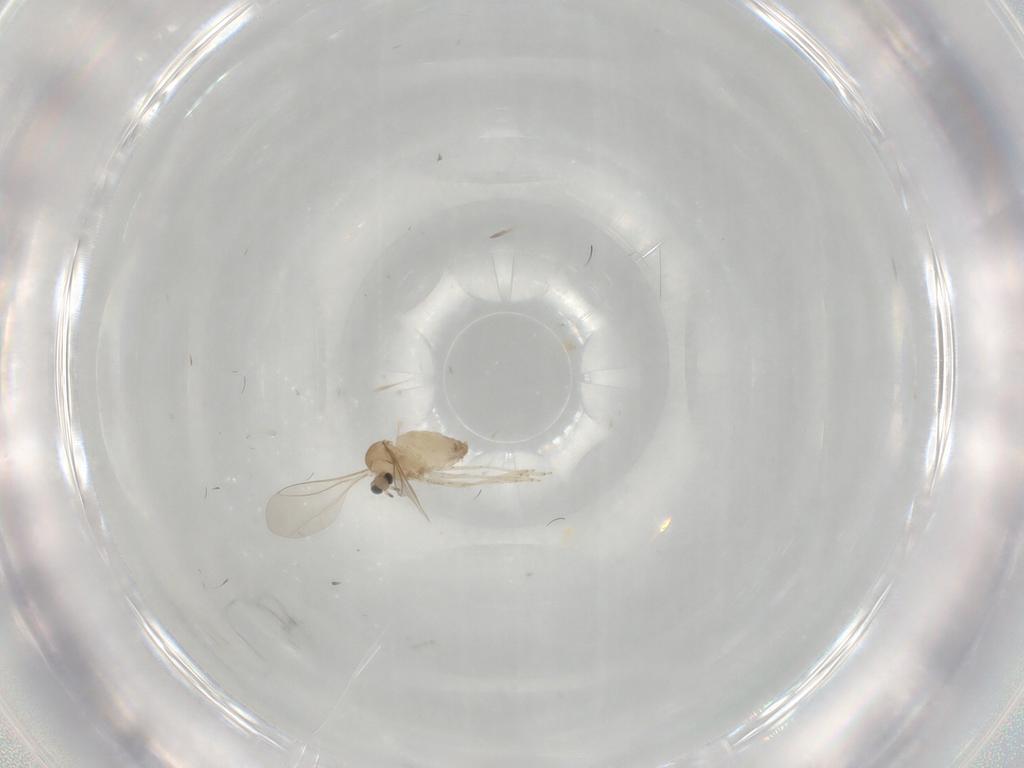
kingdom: Animalia
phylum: Arthropoda
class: Insecta
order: Diptera
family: Cecidomyiidae
